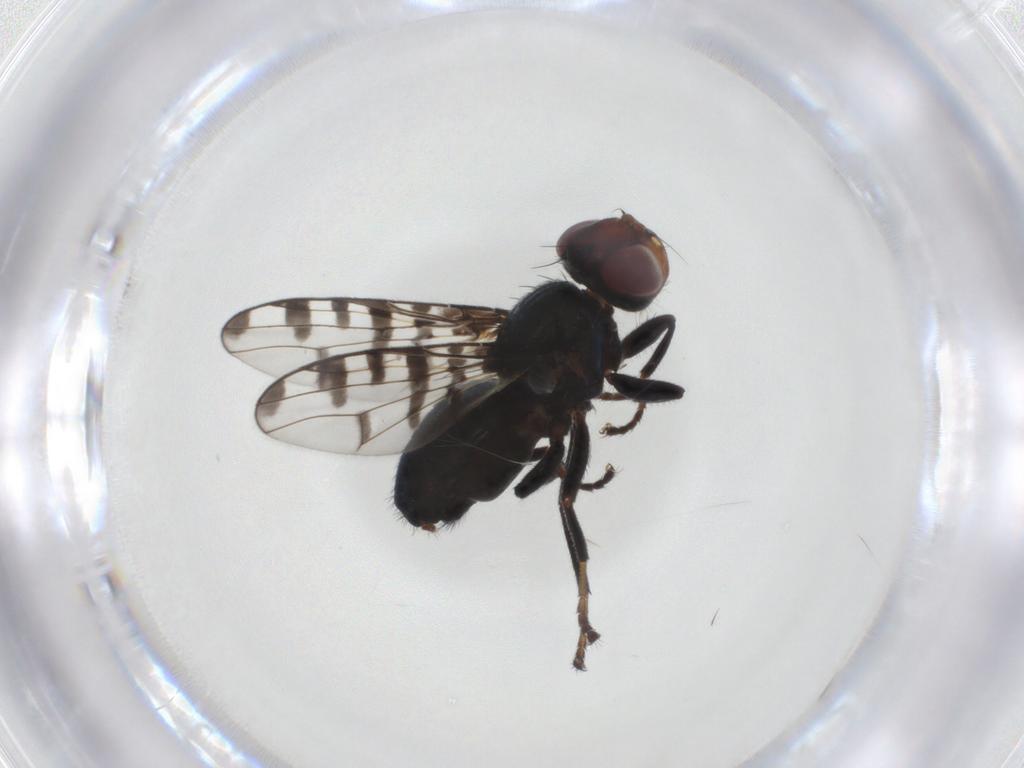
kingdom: Animalia
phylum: Arthropoda
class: Insecta
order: Diptera
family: Platystomatidae
